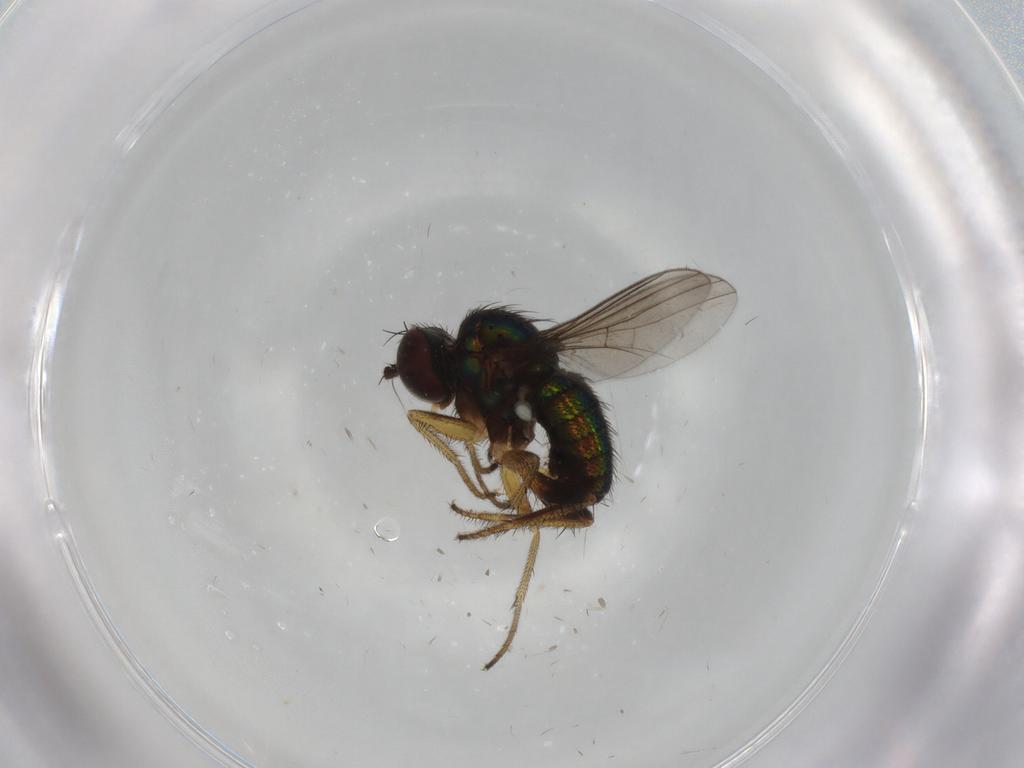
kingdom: Animalia
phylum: Arthropoda
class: Insecta
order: Diptera
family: Dolichopodidae
